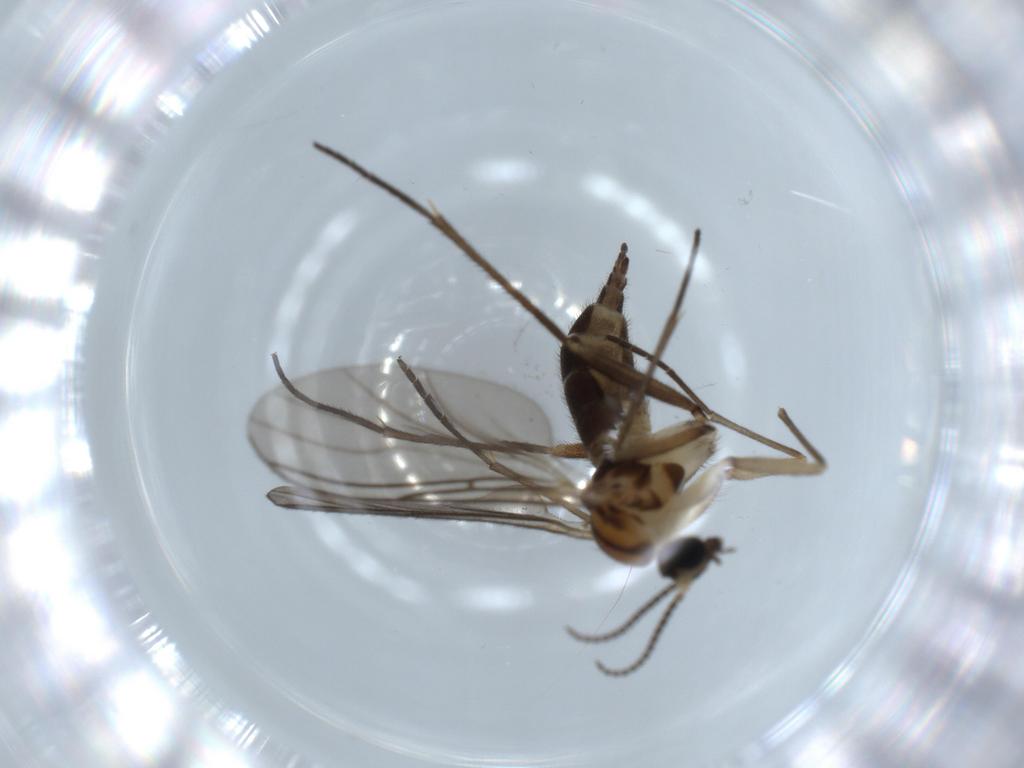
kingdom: Animalia
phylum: Arthropoda
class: Insecta
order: Diptera
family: Sciaridae
